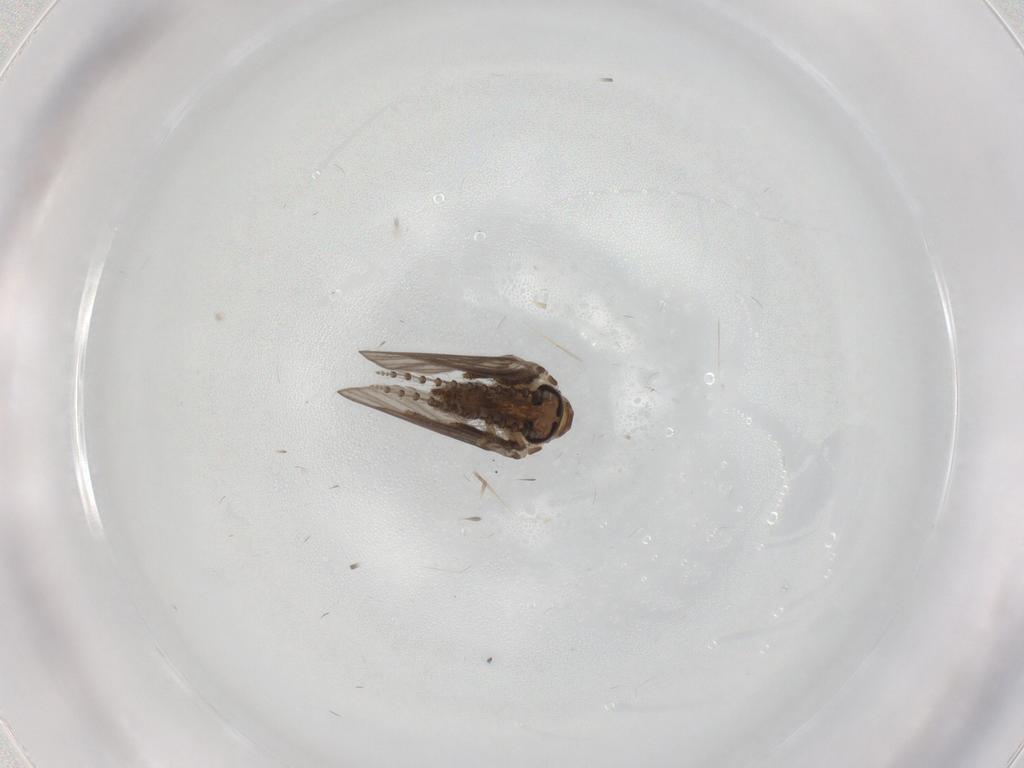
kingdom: Animalia
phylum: Arthropoda
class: Insecta
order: Diptera
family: Psychodidae
